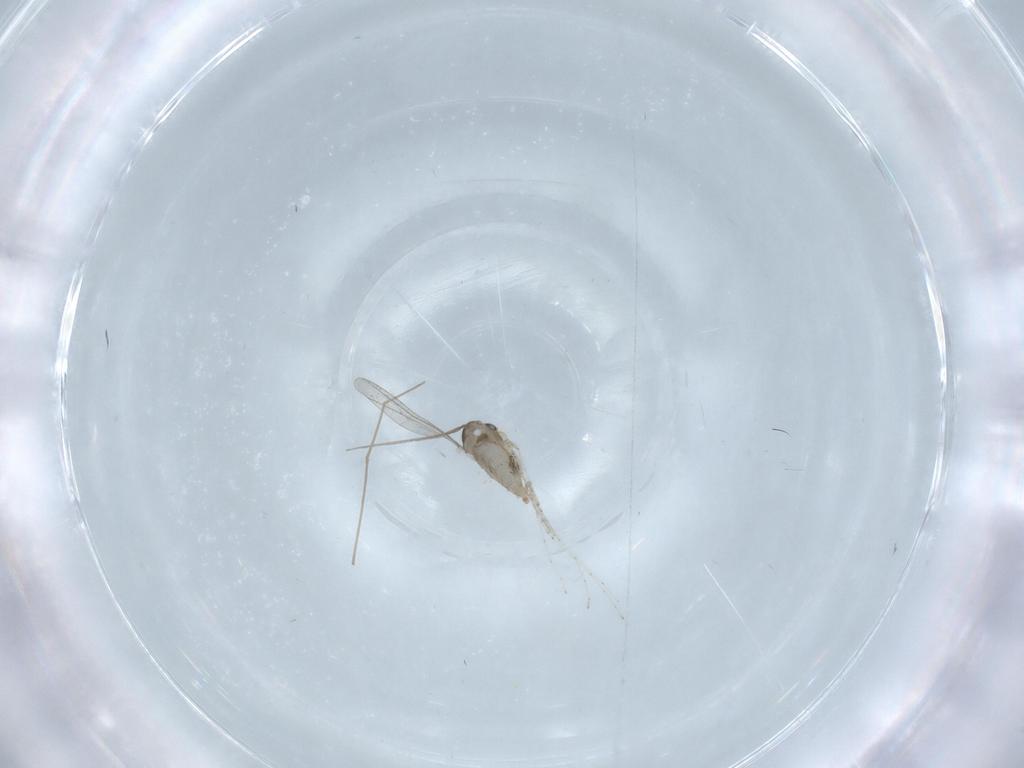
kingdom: Animalia
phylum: Arthropoda
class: Insecta
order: Diptera
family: Cecidomyiidae
